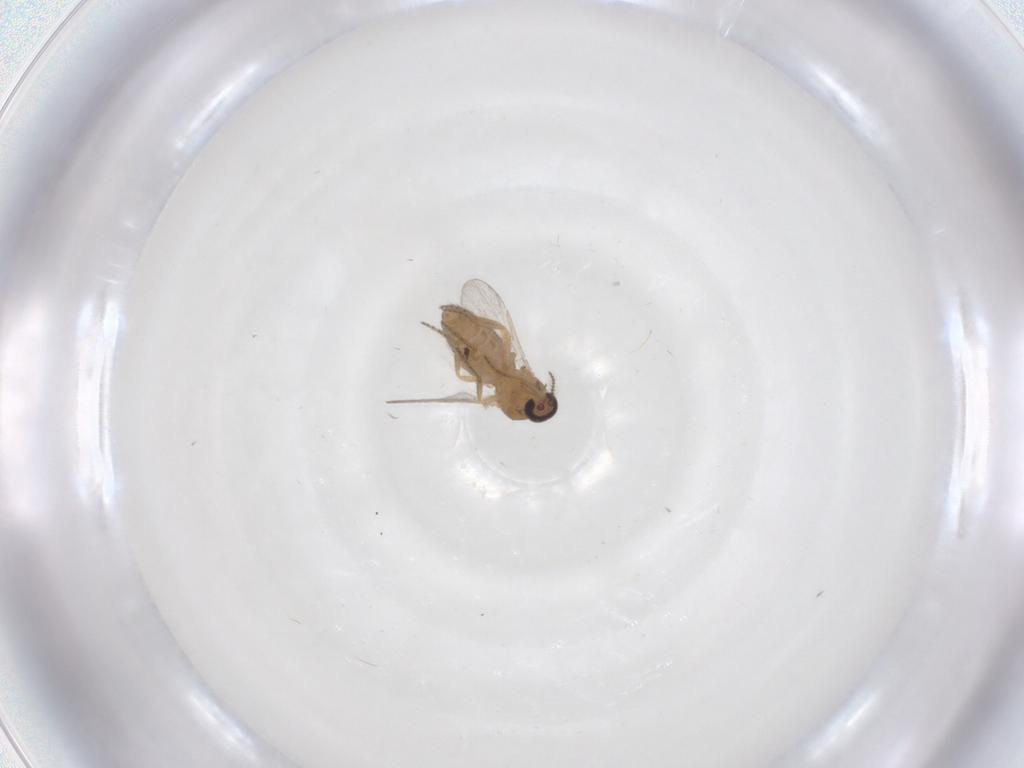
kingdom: Animalia
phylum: Arthropoda
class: Insecta
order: Diptera
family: Ceratopogonidae
